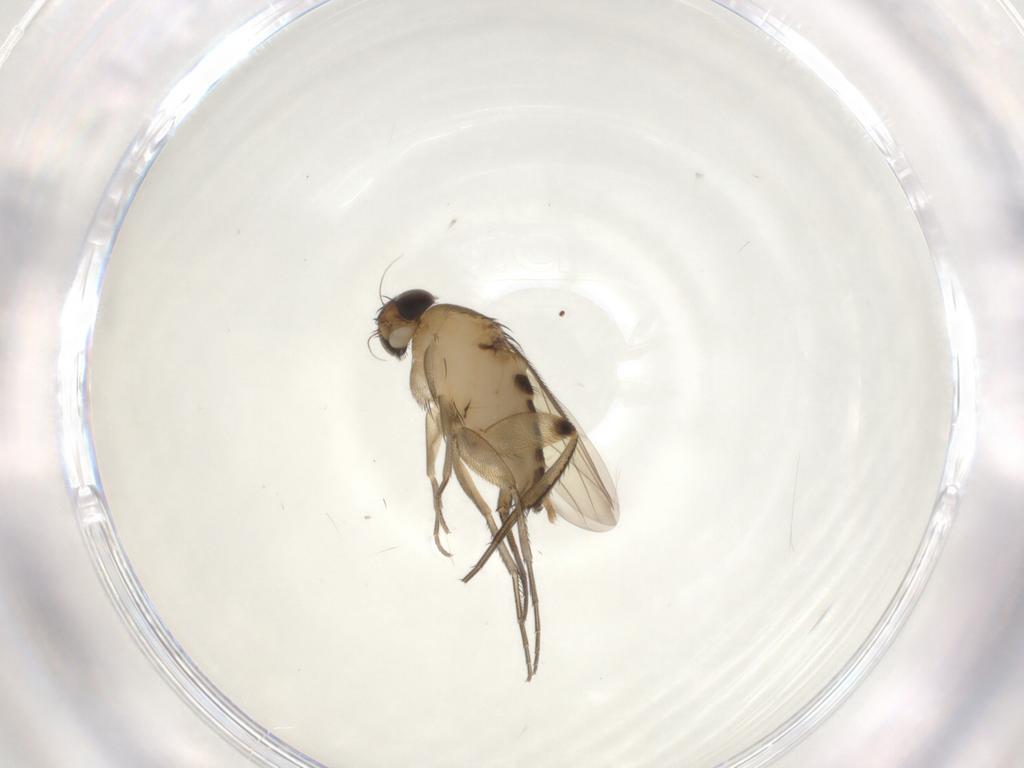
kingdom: Animalia
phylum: Arthropoda
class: Insecta
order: Diptera
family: Phoridae
